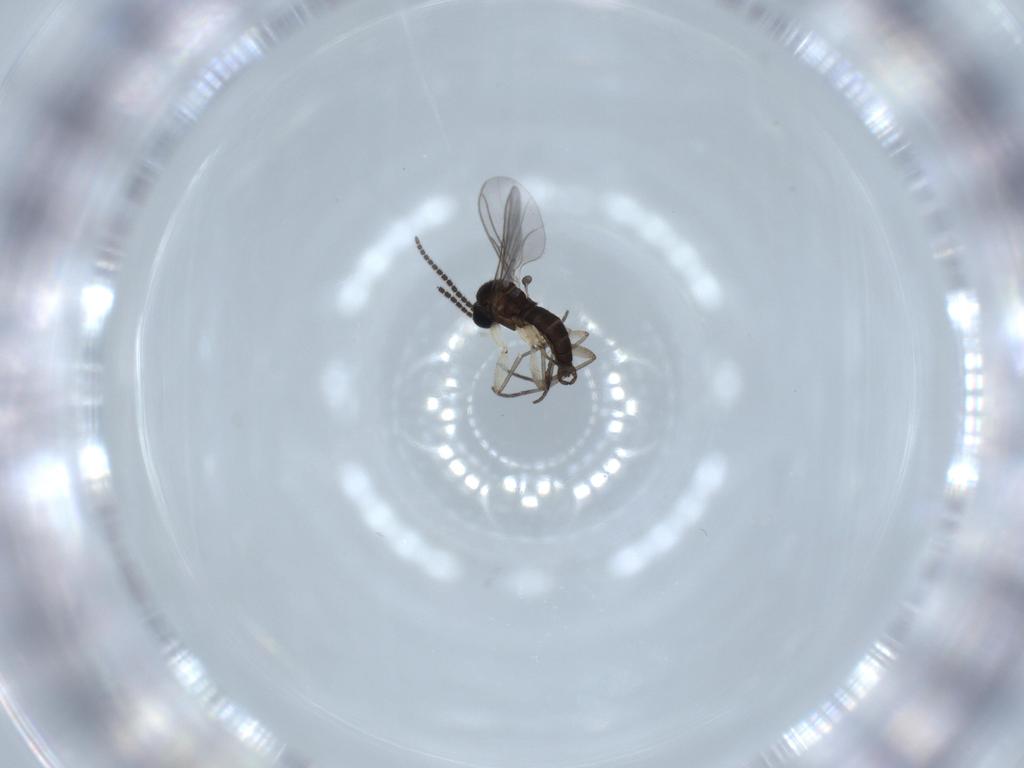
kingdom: Animalia
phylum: Arthropoda
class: Insecta
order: Diptera
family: Sciaridae
